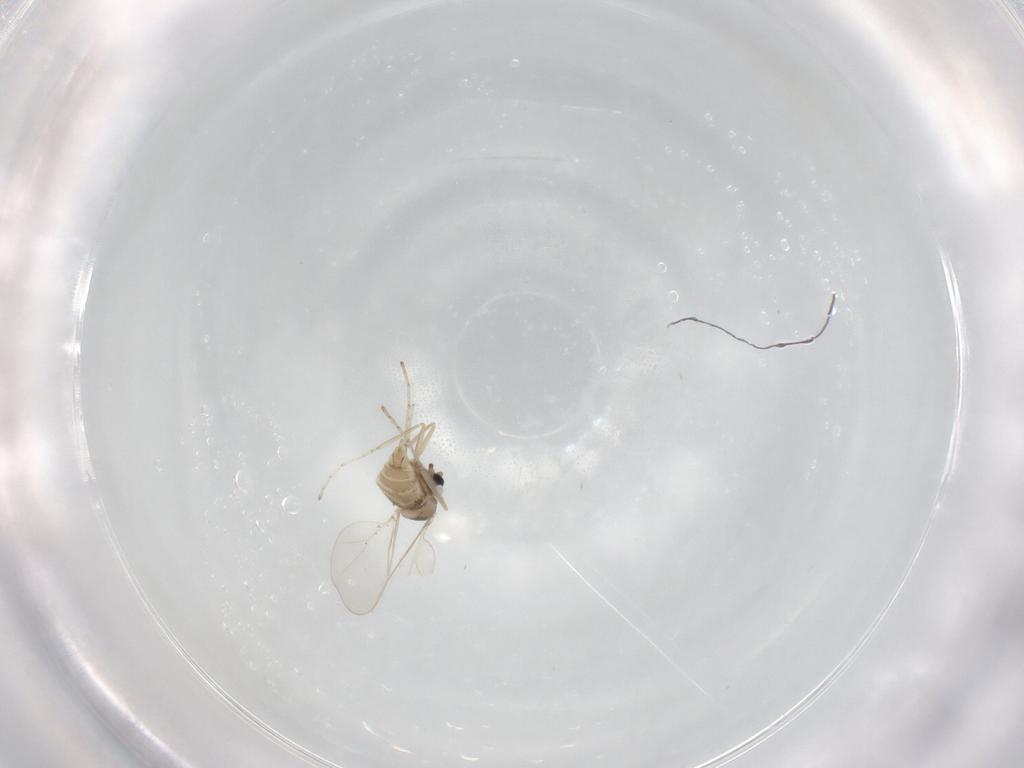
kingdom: Animalia
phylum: Arthropoda
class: Insecta
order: Diptera
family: Cecidomyiidae
